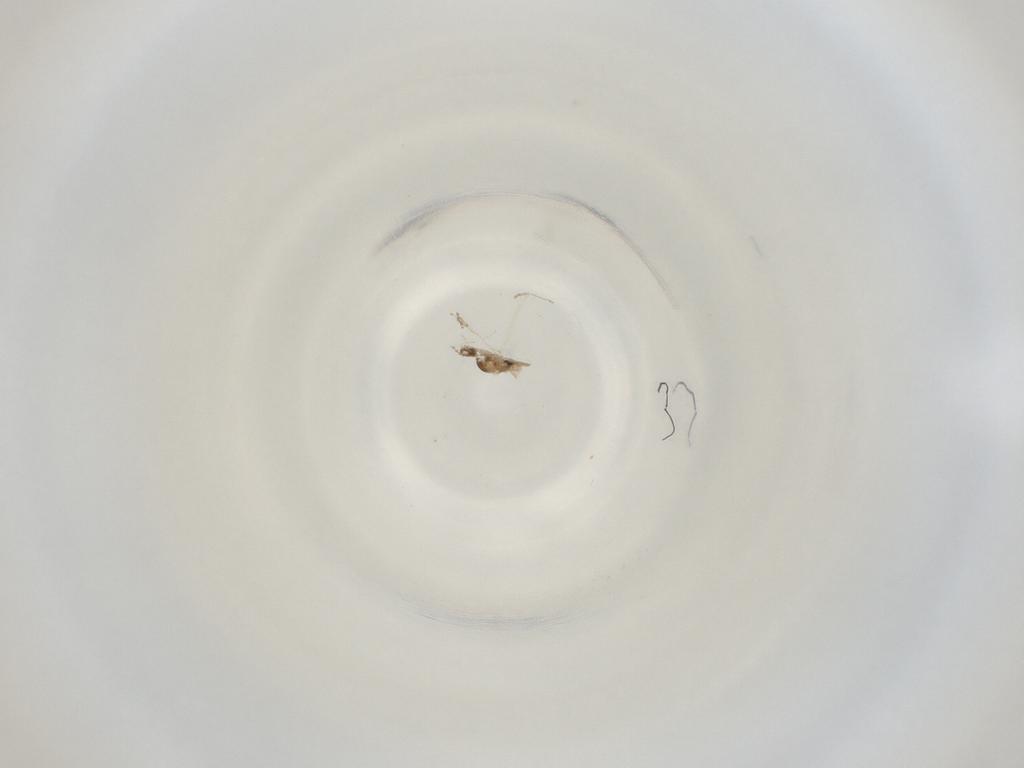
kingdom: Animalia
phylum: Arthropoda
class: Insecta
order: Diptera
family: Cecidomyiidae
